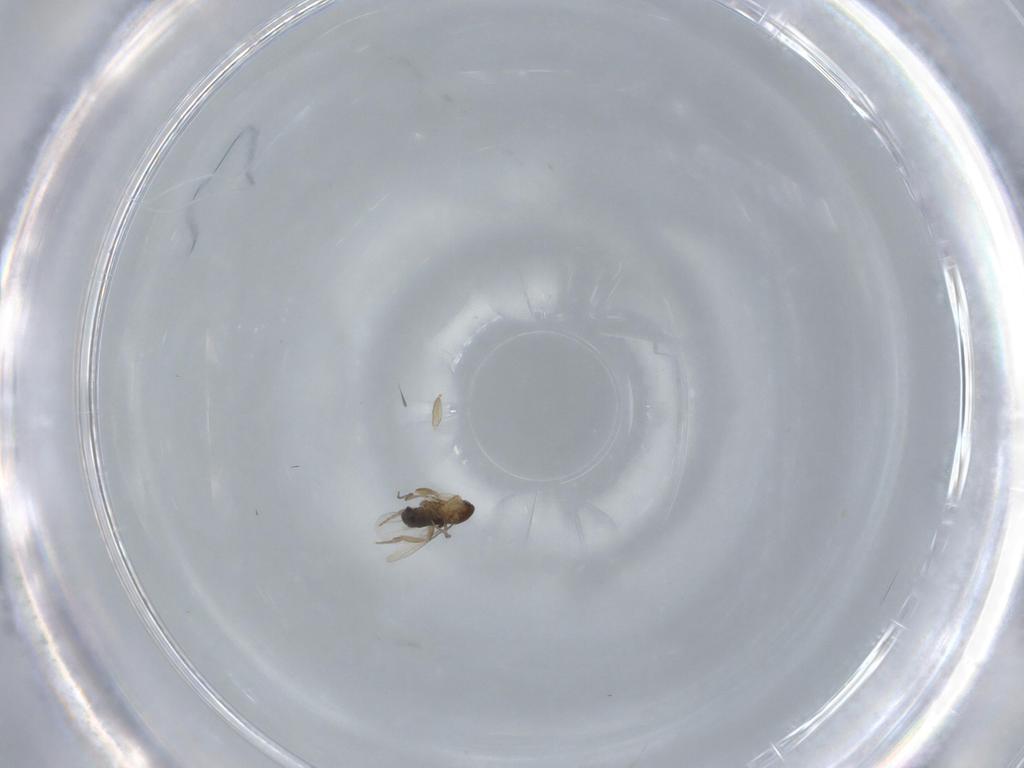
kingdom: Animalia
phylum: Arthropoda
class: Insecta
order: Diptera
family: Phoridae
